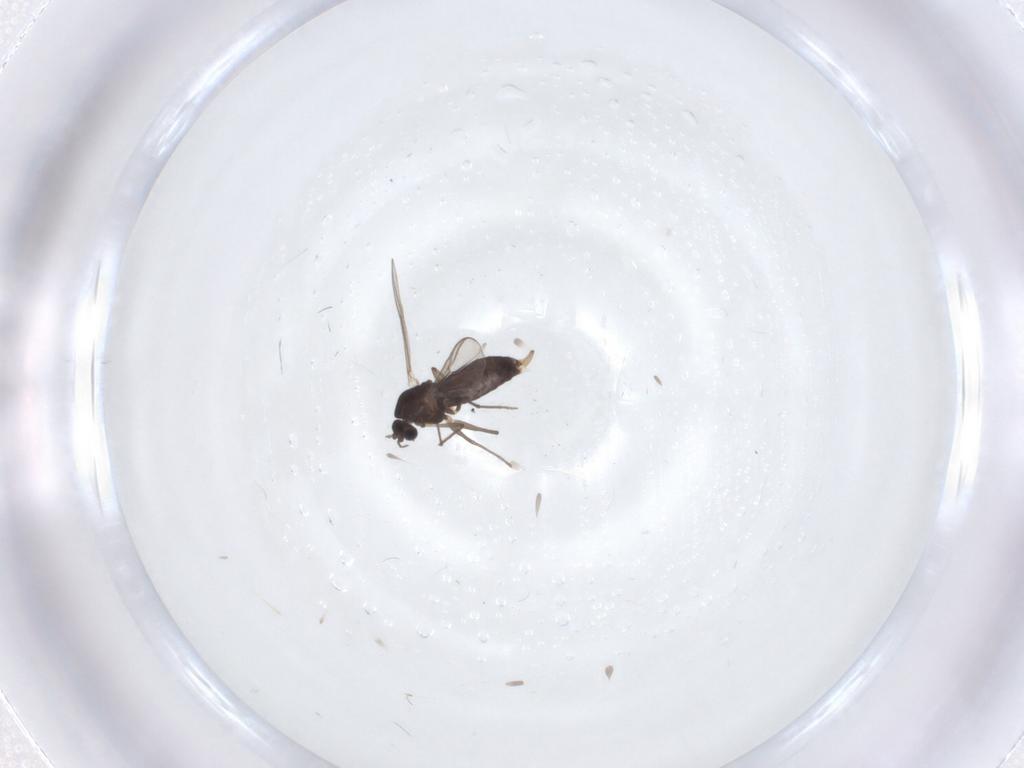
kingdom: Animalia
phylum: Arthropoda
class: Insecta
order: Diptera
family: Chironomidae
